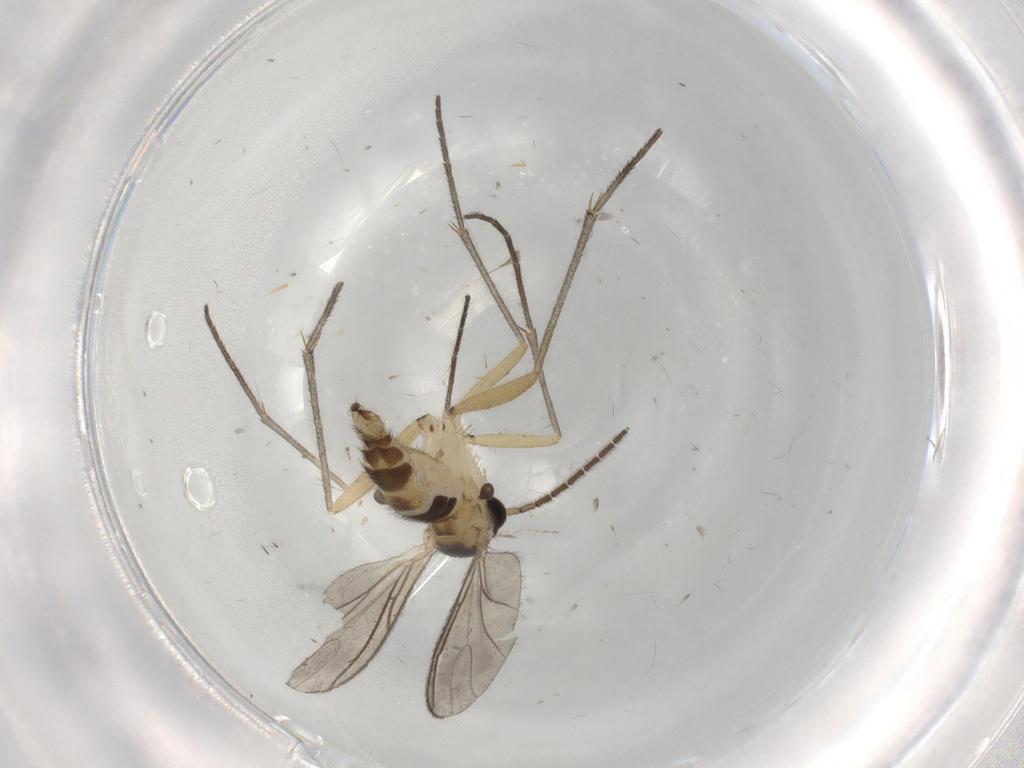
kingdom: Animalia
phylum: Arthropoda
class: Insecta
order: Diptera
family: Sciaridae
